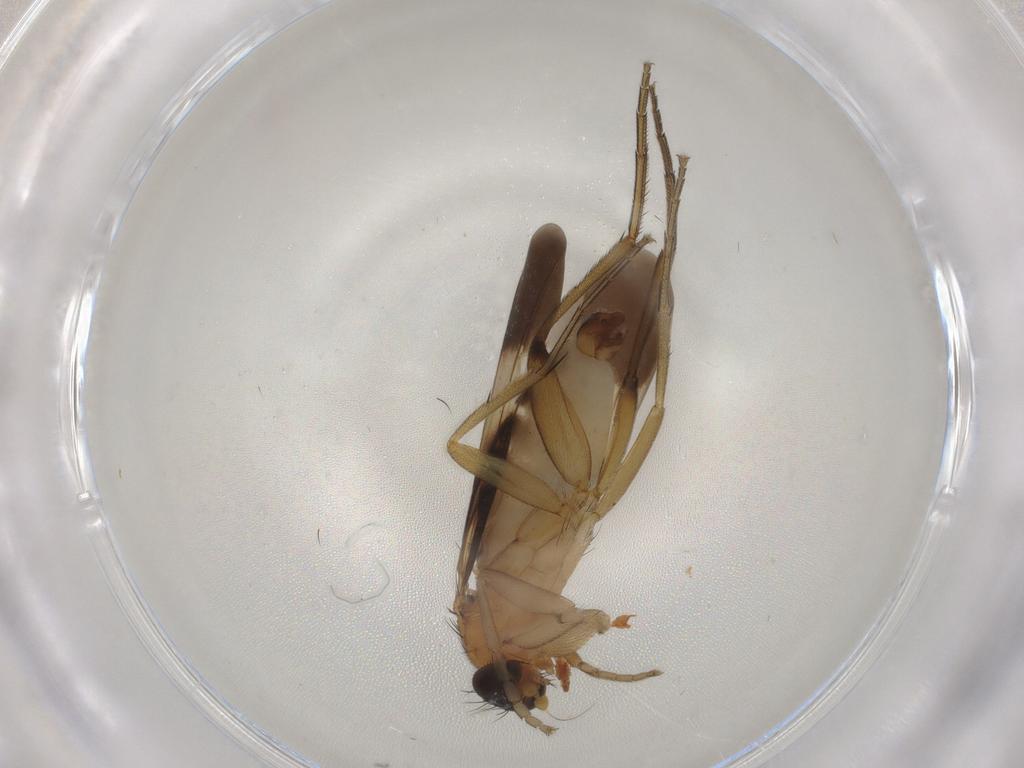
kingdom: Animalia
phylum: Arthropoda
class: Insecta
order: Diptera
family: Phoridae
